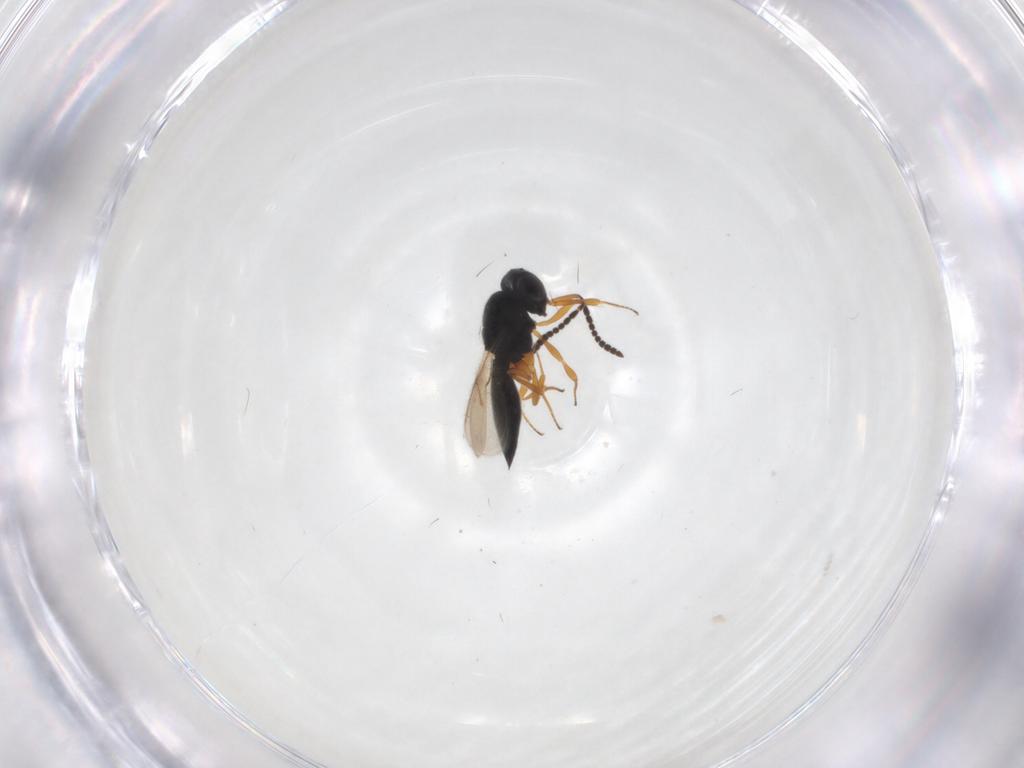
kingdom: Animalia
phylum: Arthropoda
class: Insecta
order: Hymenoptera
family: Scelionidae
